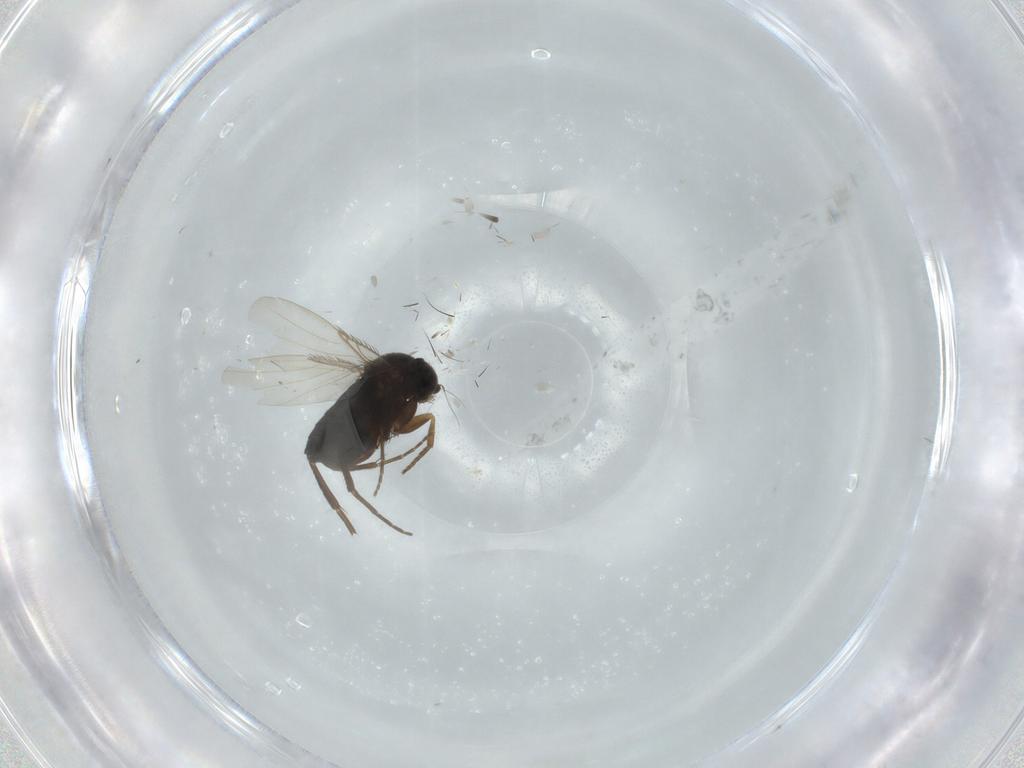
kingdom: Animalia
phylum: Arthropoda
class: Insecta
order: Diptera
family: Phoridae
